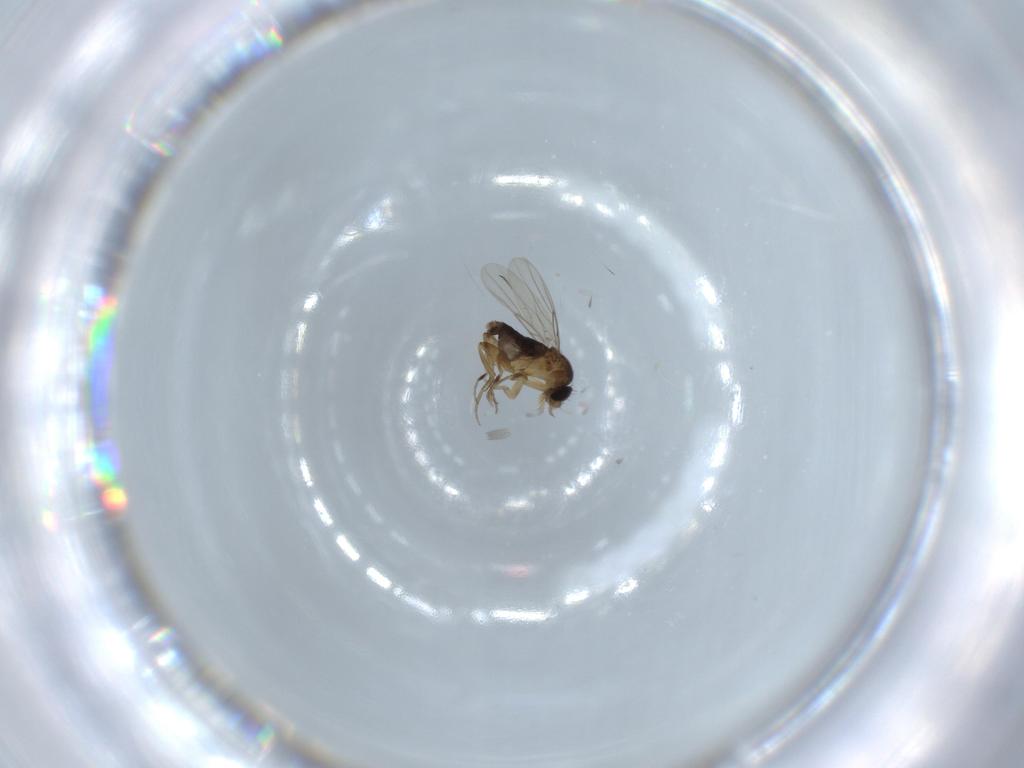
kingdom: Animalia
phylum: Arthropoda
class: Insecta
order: Diptera
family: Phoridae
